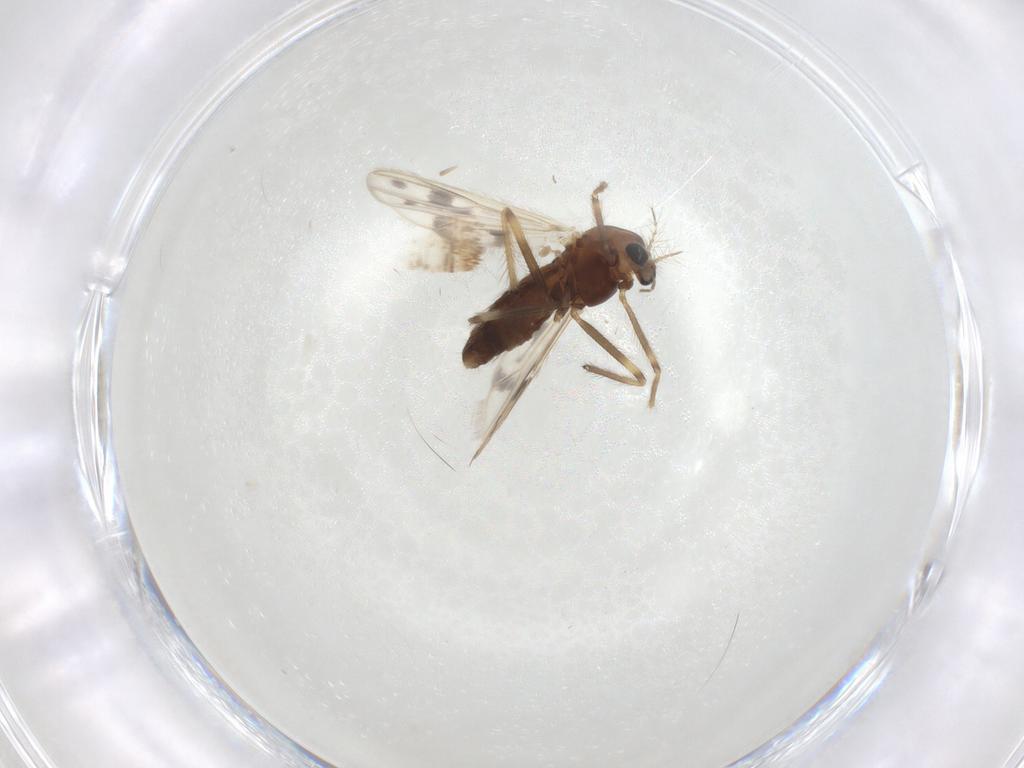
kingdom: Animalia
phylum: Arthropoda
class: Insecta
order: Diptera
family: Chironomidae
